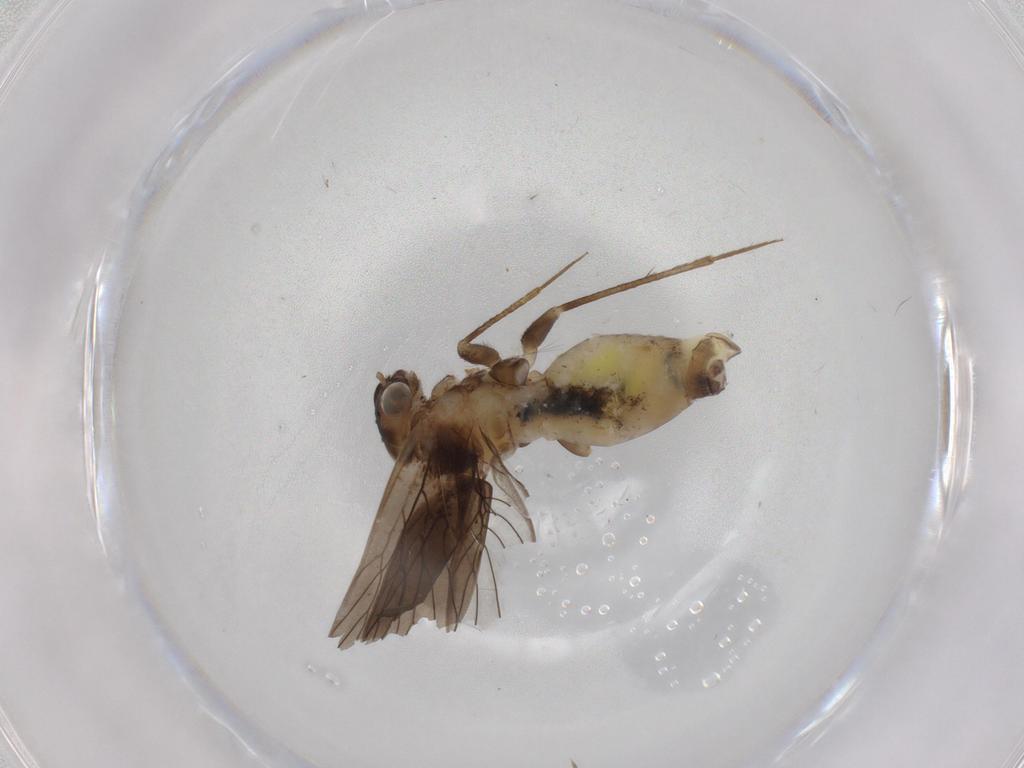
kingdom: Animalia
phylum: Arthropoda
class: Insecta
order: Psocodea
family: Lepidopsocidae
